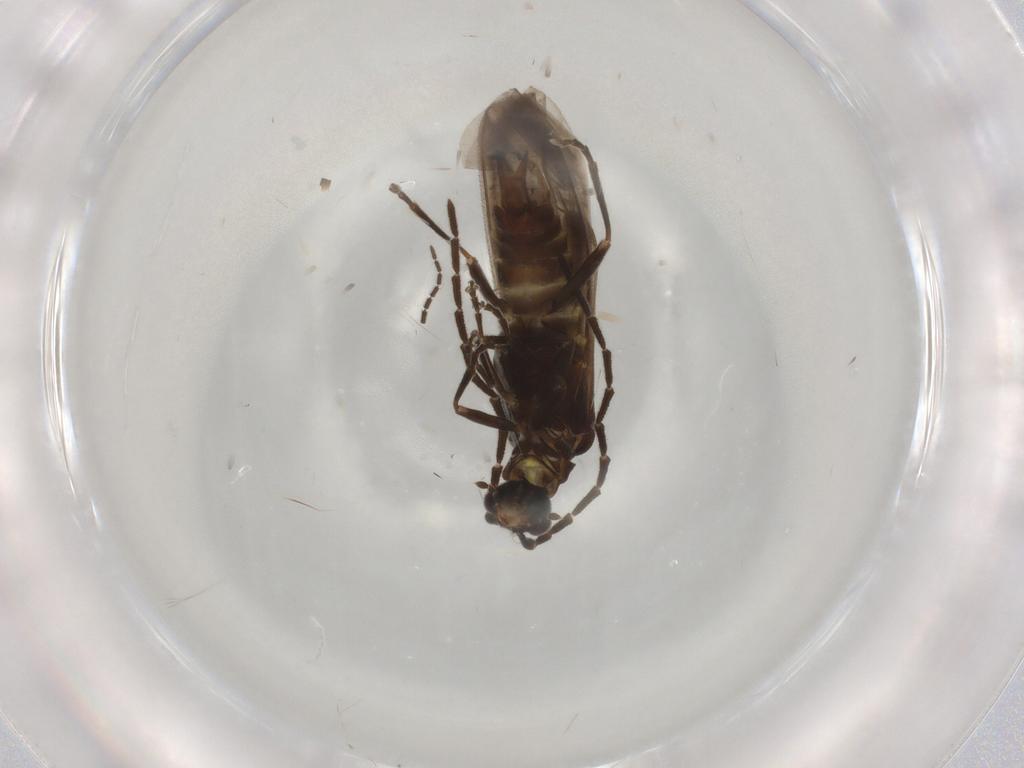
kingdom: Animalia
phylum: Arthropoda
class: Insecta
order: Coleoptera
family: Cantharidae
